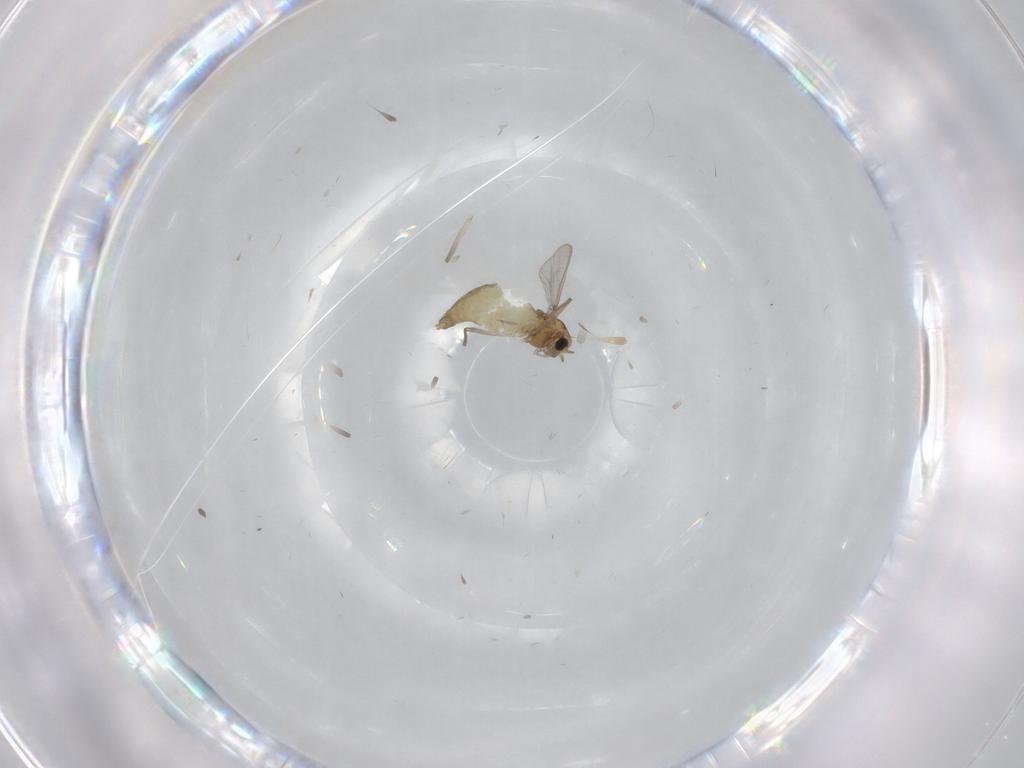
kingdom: Animalia
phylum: Arthropoda
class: Insecta
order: Diptera
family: Chironomidae
